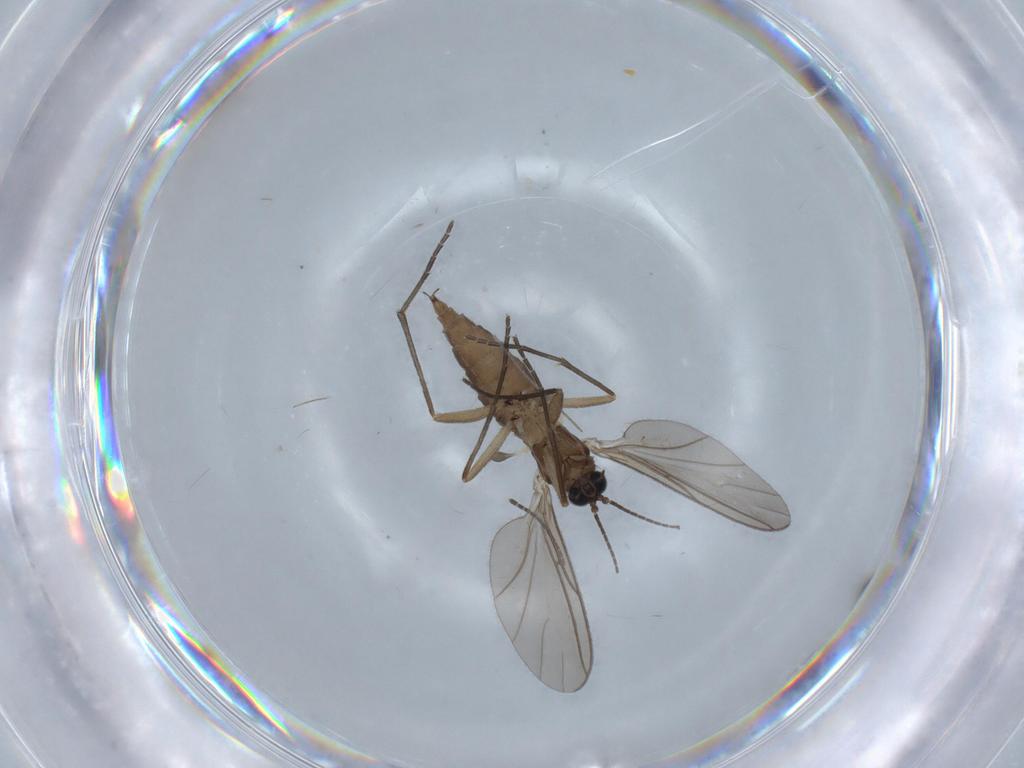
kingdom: Animalia
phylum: Arthropoda
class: Insecta
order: Diptera
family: Sciaridae
